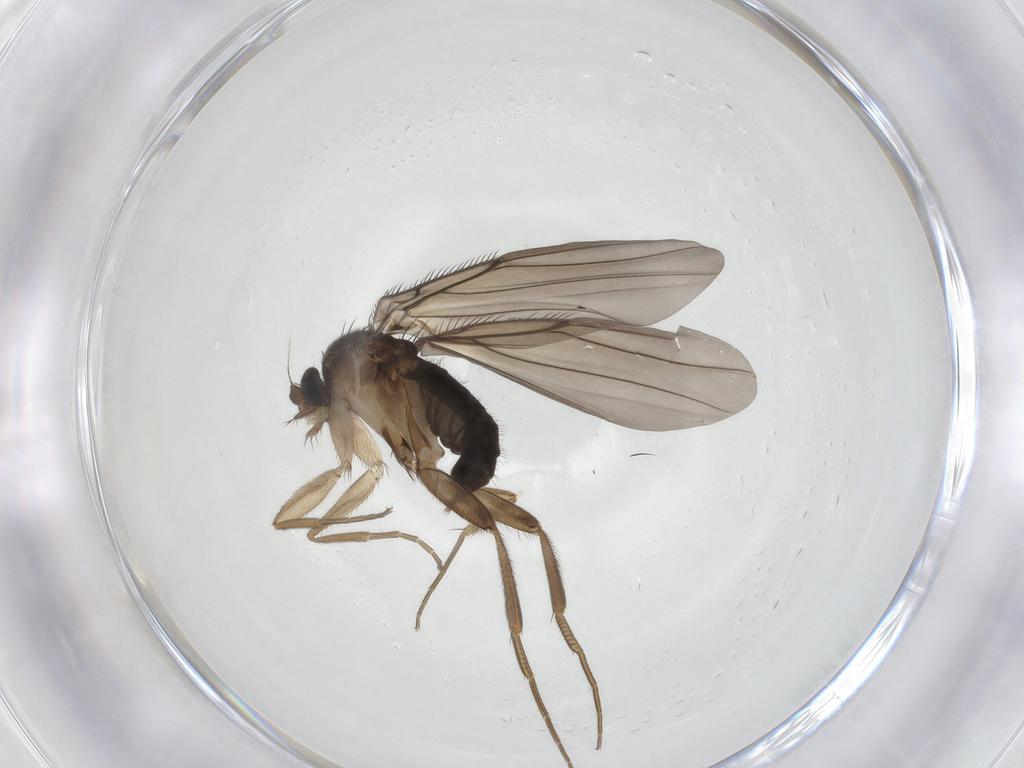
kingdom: Animalia
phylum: Arthropoda
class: Insecta
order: Diptera
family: Phoridae
